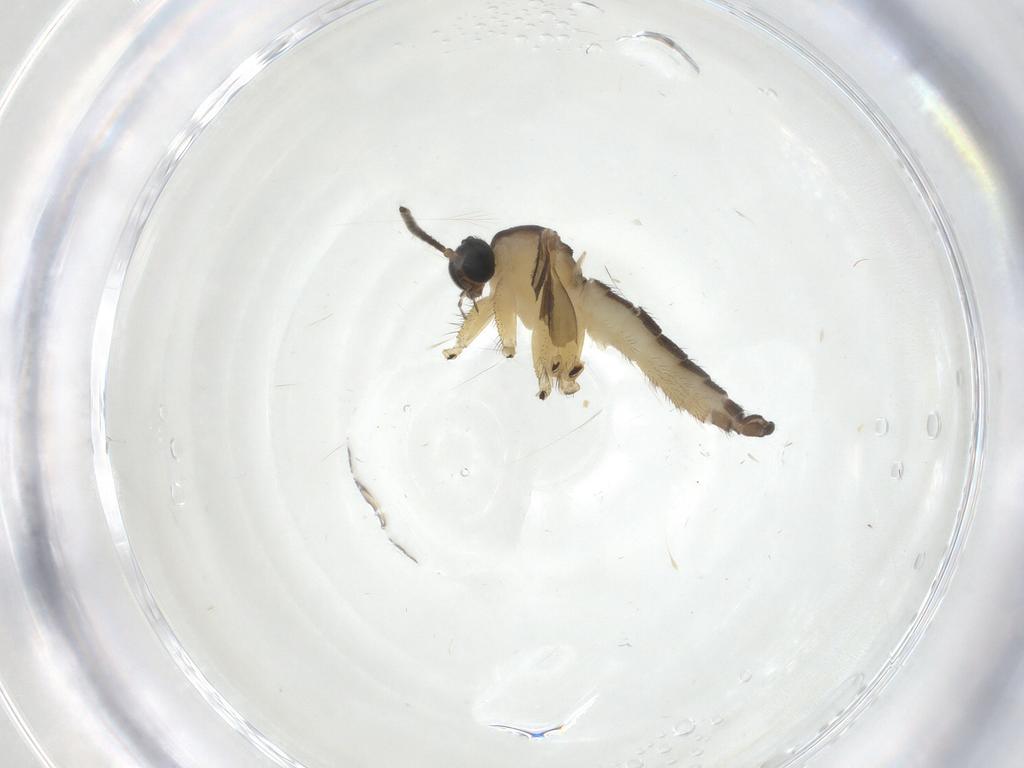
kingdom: Animalia
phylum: Arthropoda
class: Insecta
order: Diptera
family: Sciaridae
